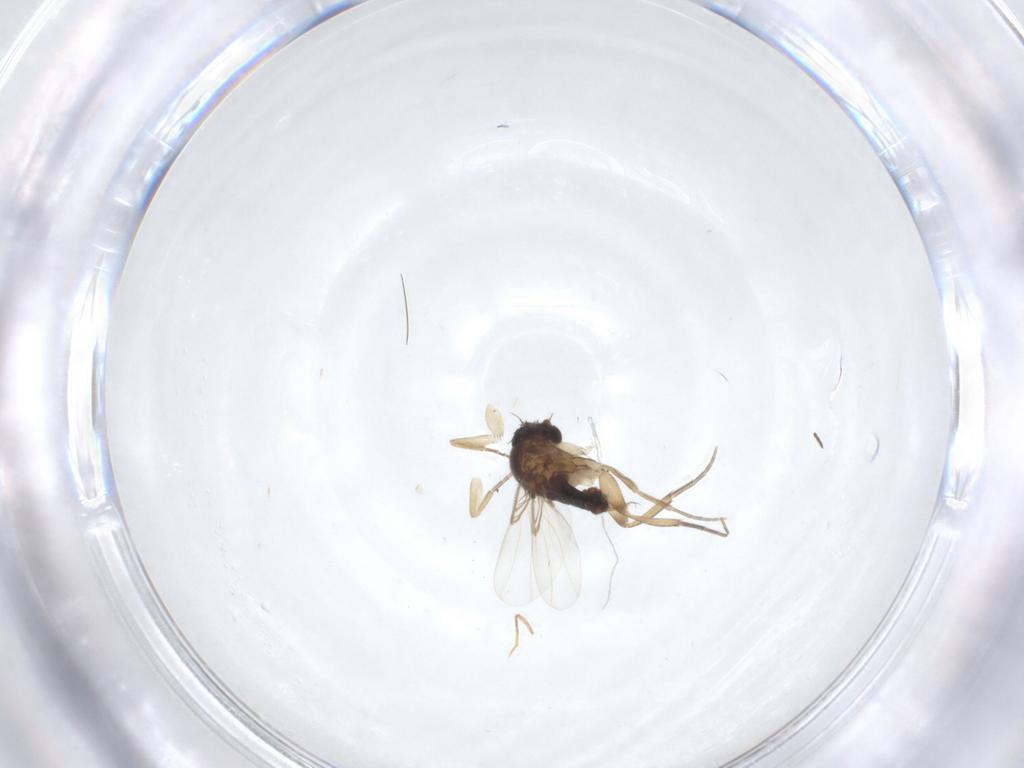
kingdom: Animalia
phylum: Arthropoda
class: Insecta
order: Diptera
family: Phoridae
